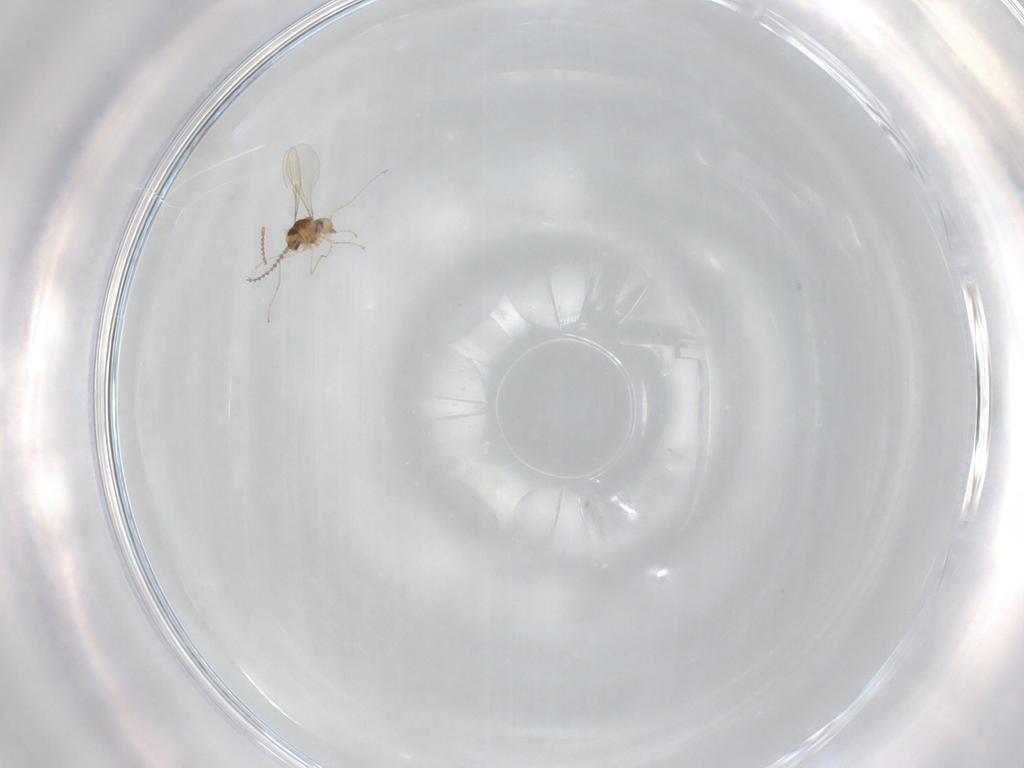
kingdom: Animalia
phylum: Arthropoda
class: Insecta
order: Diptera
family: Cecidomyiidae
